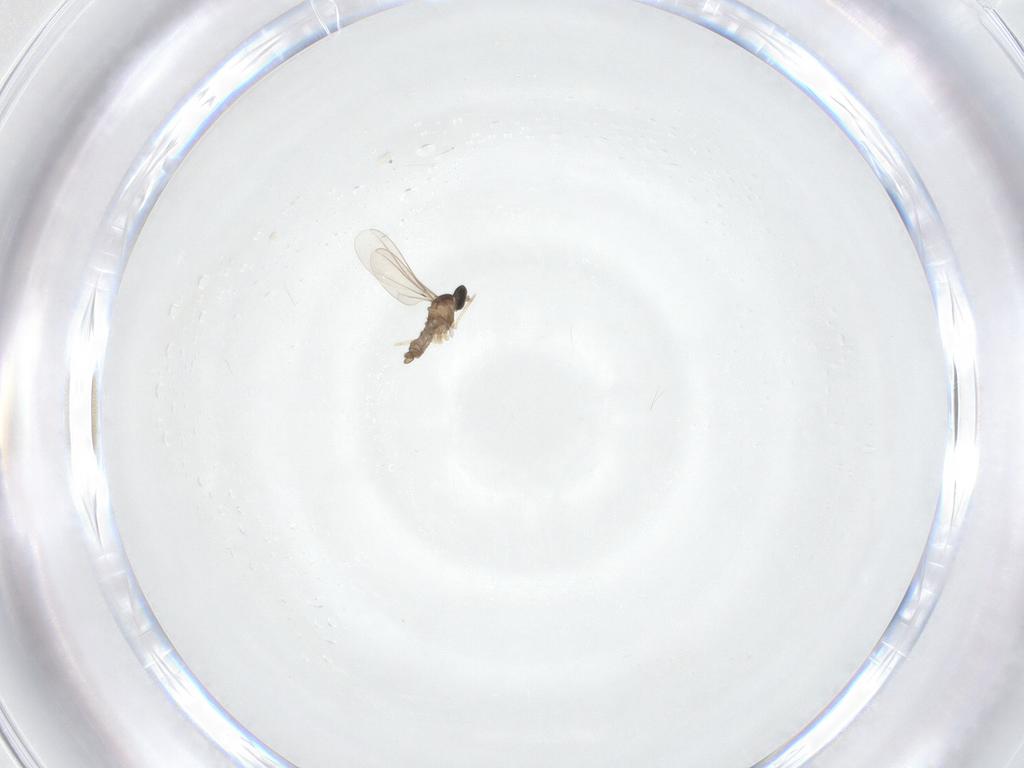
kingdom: Animalia
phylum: Arthropoda
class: Insecta
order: Diptera
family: Cecidomyiidae
